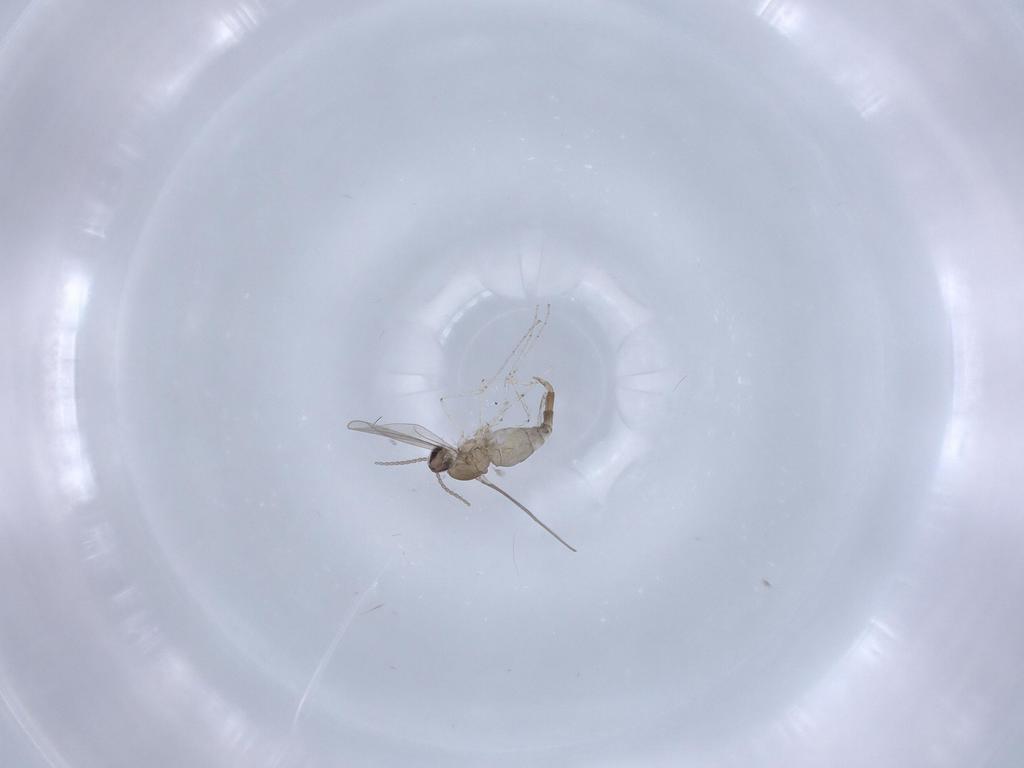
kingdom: Animalia
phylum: Arthropoda
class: Insecta
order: Diptera
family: Cecidomyiidae
